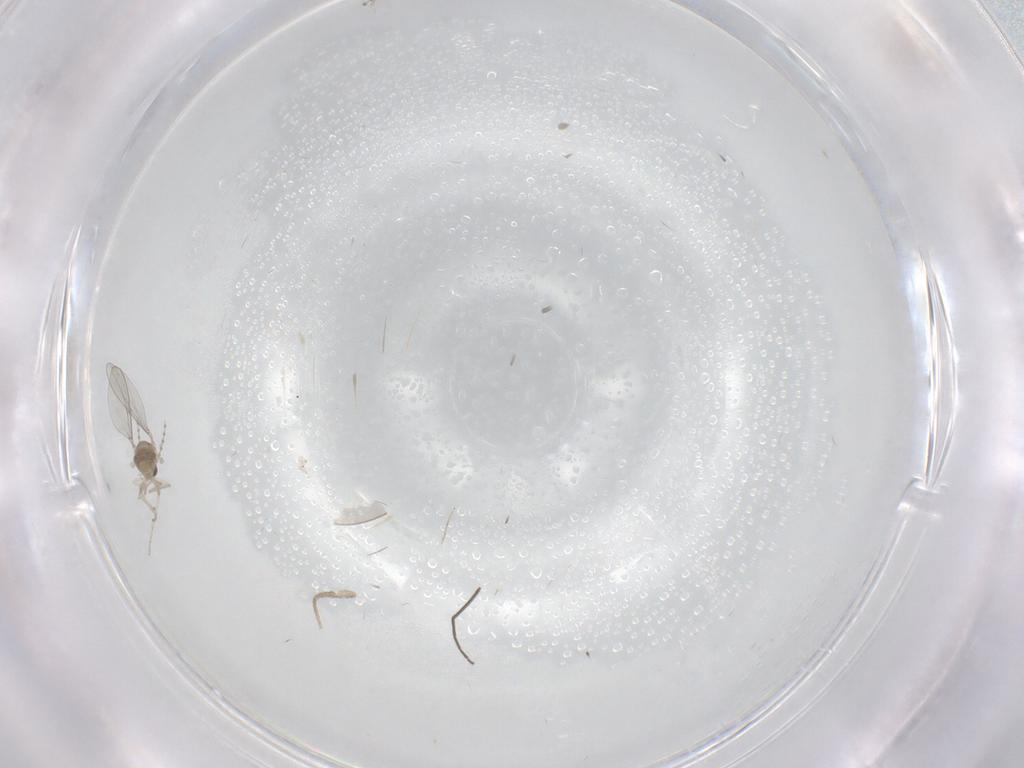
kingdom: Animalia
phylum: Arthropoda
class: Insecta
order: Diptera
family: Cecidomyiidae
